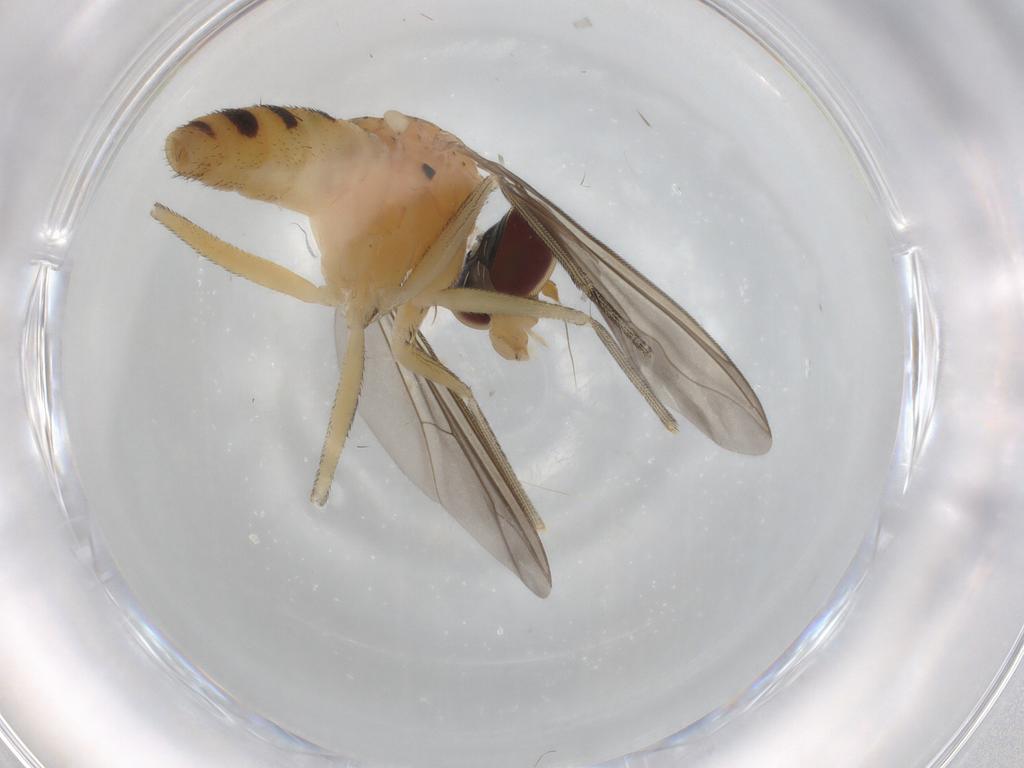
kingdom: Animalia
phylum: Arthropoda
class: Insecta
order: Diptera
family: Dolichopodidae
